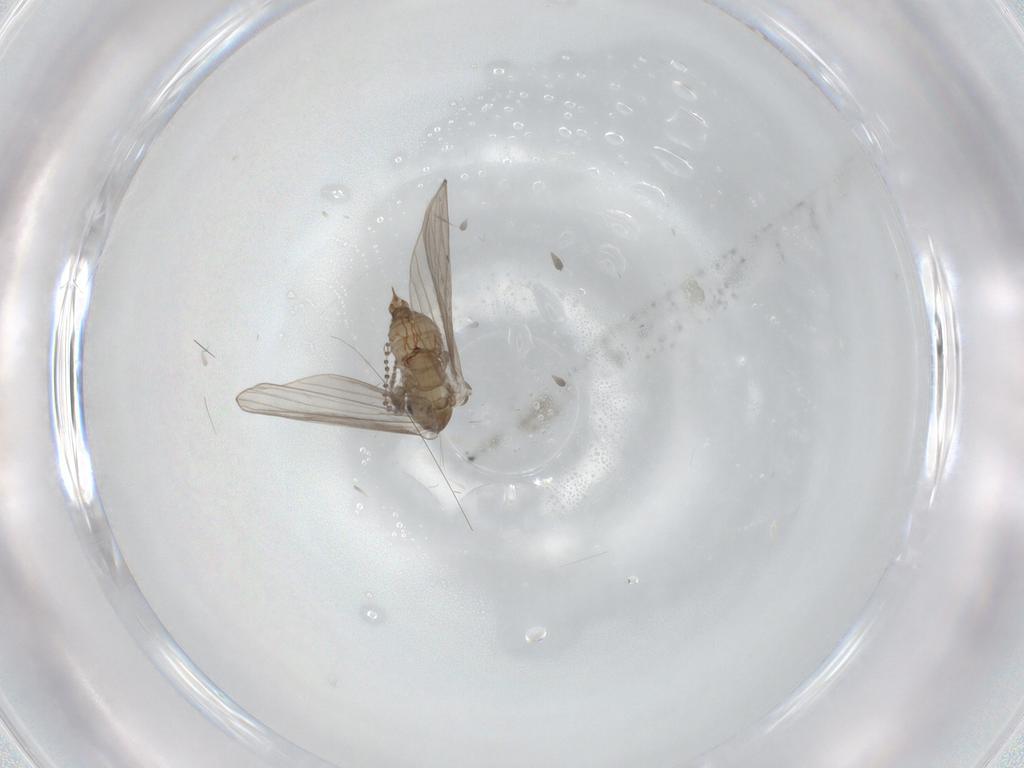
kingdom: Animalia
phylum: Arthropoda
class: Insecta
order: Diptera
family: Psychodidae
